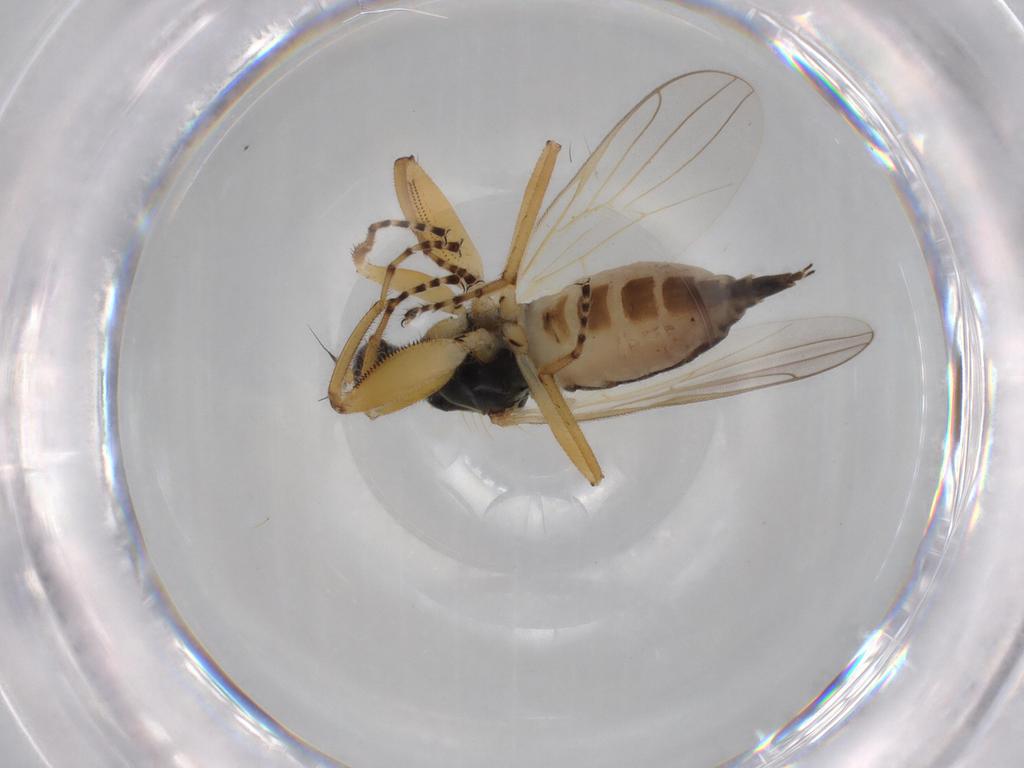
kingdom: Animalia
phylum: Arthropoda
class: Insecta
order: Diptera
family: Hybotidae
